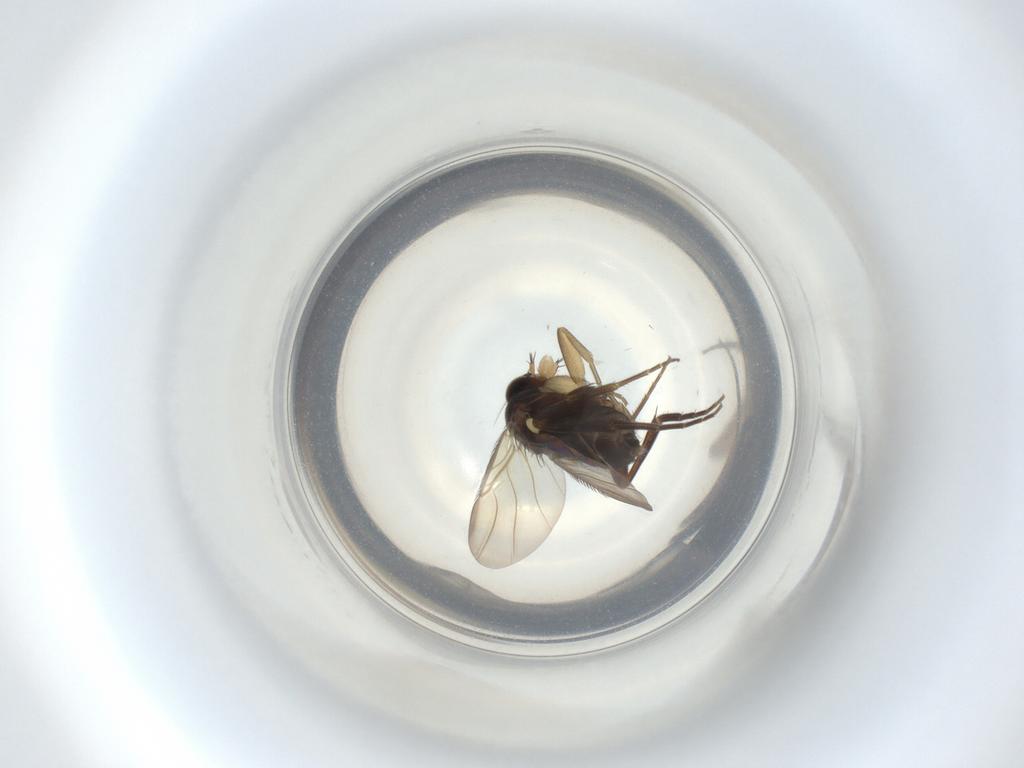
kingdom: Animalia
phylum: Arthropoda
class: Insecta
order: Diptera
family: Phoridae
